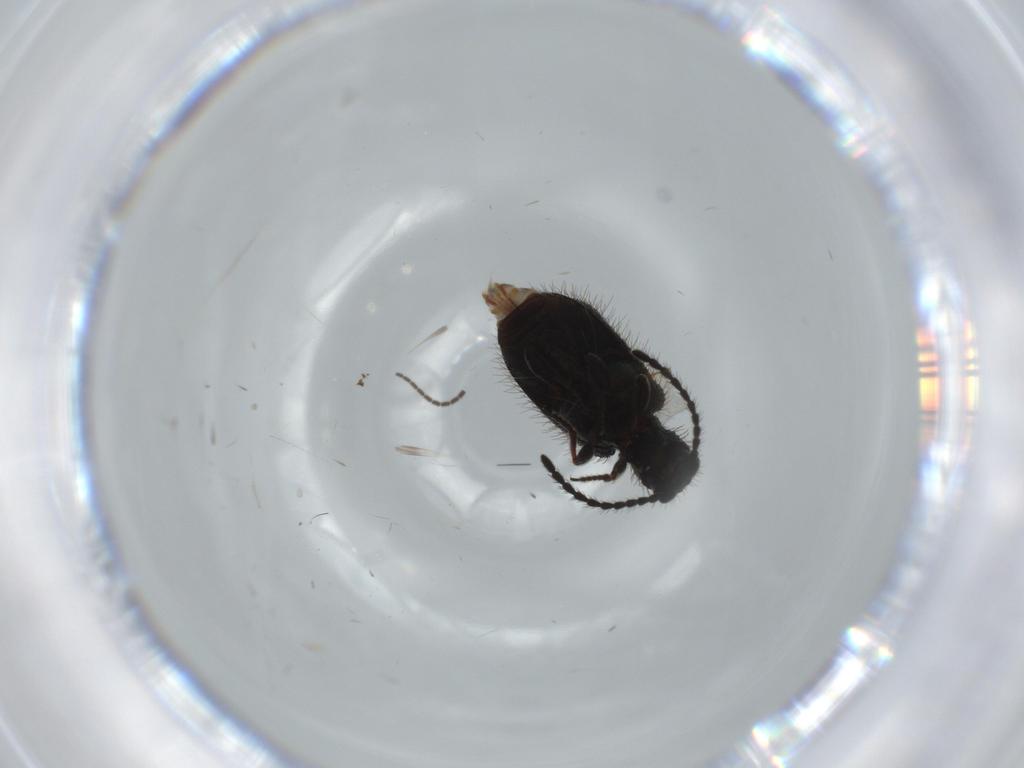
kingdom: Animalia
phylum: Arthropoda
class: Insecta
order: Coleoptera
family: Ptinidae
